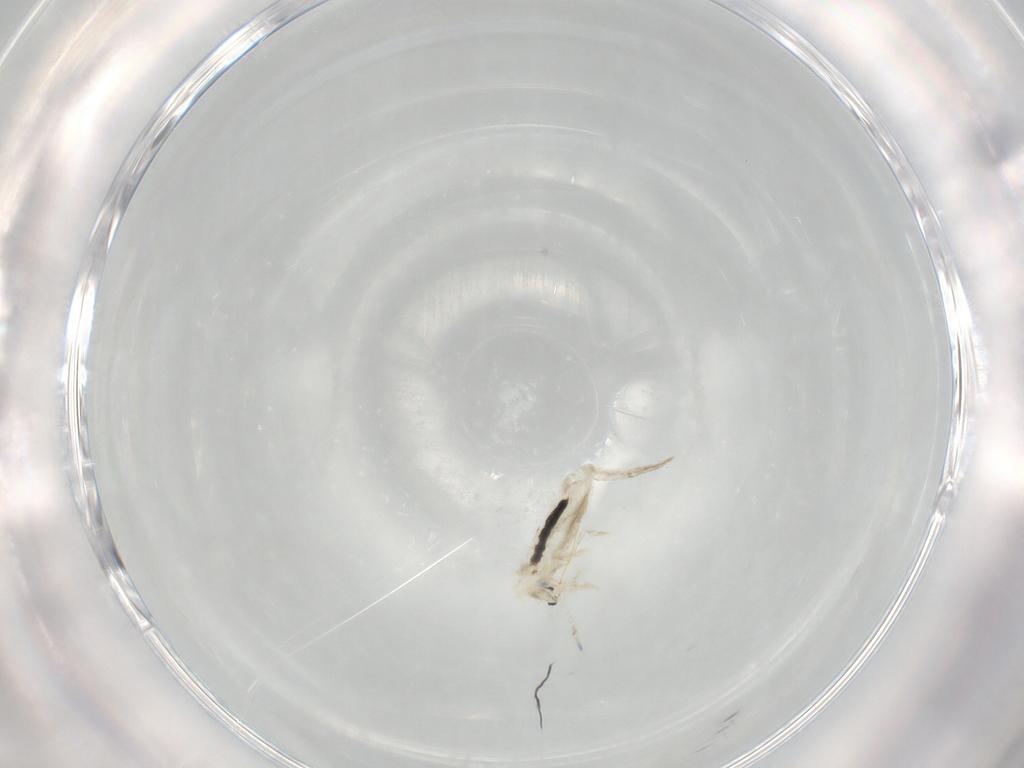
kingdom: Animalia
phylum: Arthropoda
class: Collembola
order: Entomobryomorpha
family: Entomobryidae
